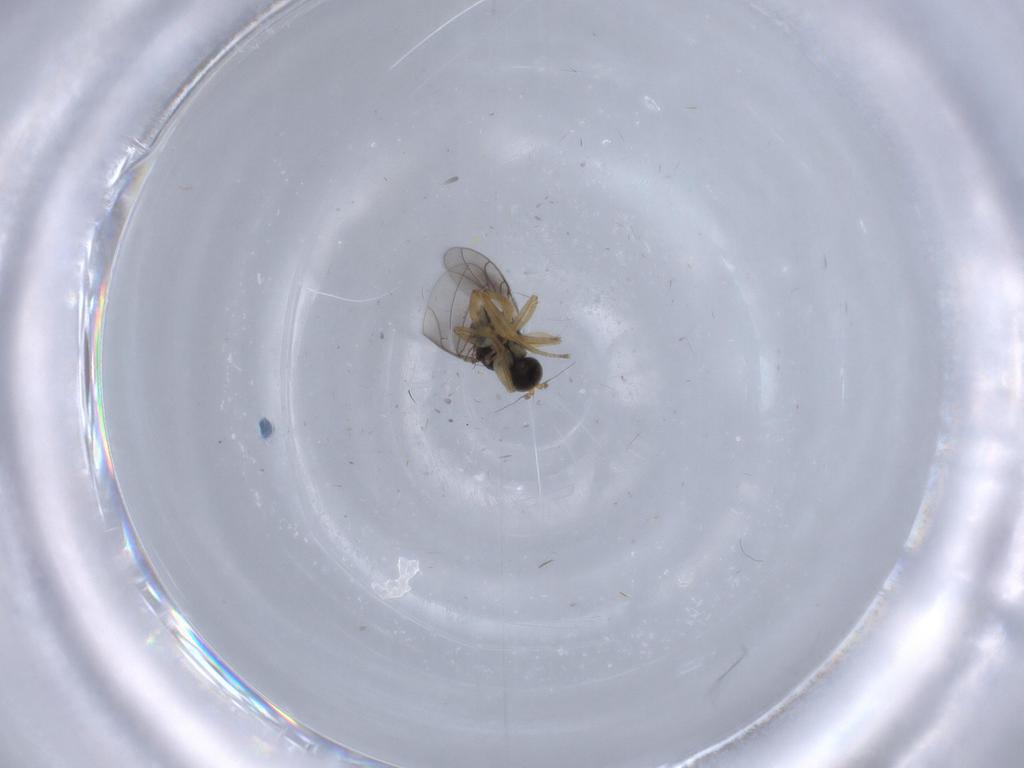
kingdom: Animalia
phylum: Arthropoda
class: Insecta
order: Diptera
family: Hybotidae
